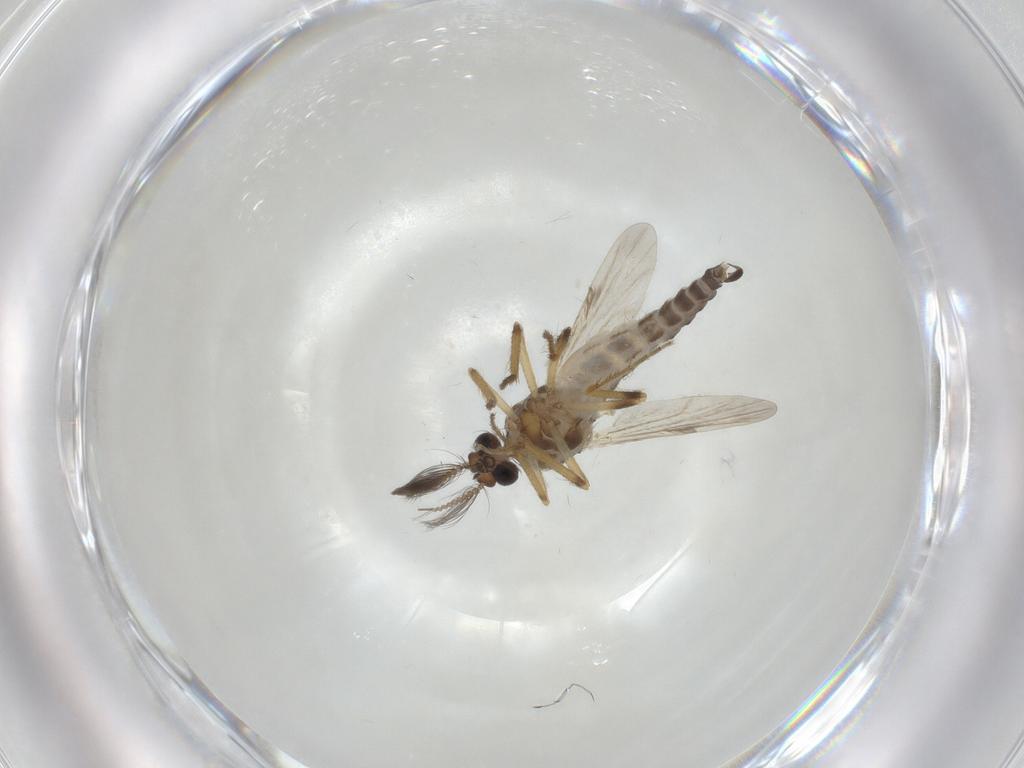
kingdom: Animalia
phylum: Arthropoda
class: Insecta
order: Diptera
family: Ceratopogonidae
